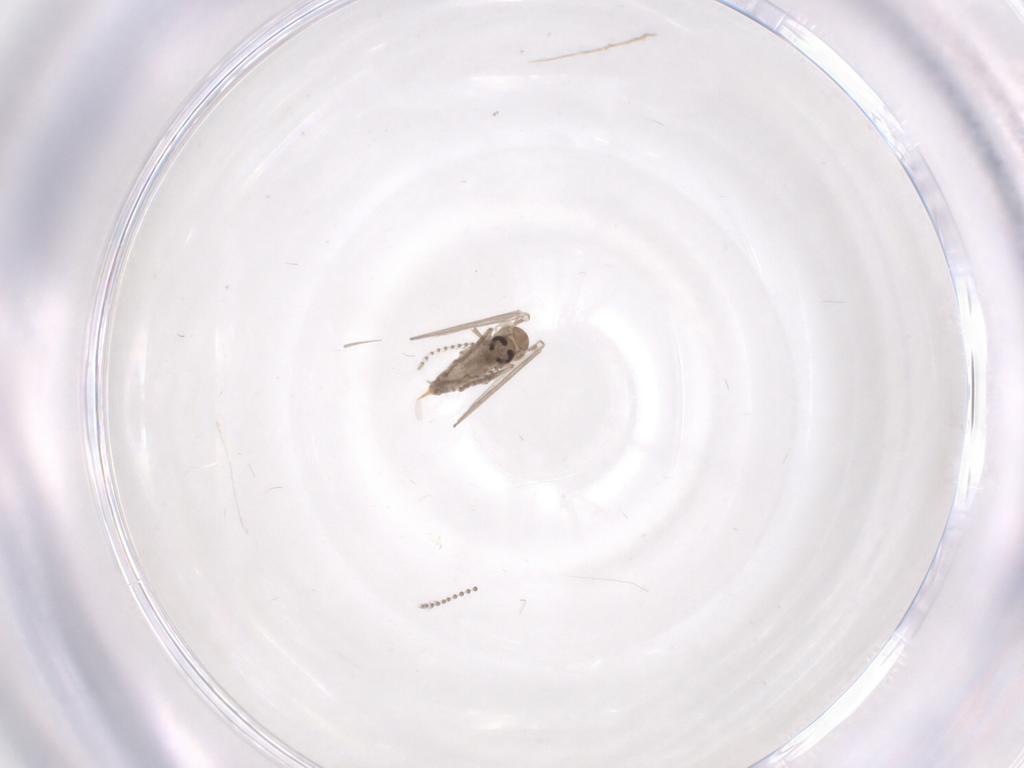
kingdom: Animalia
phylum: Arthropoda
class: Insecta
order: Diptera
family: Psychodidae
